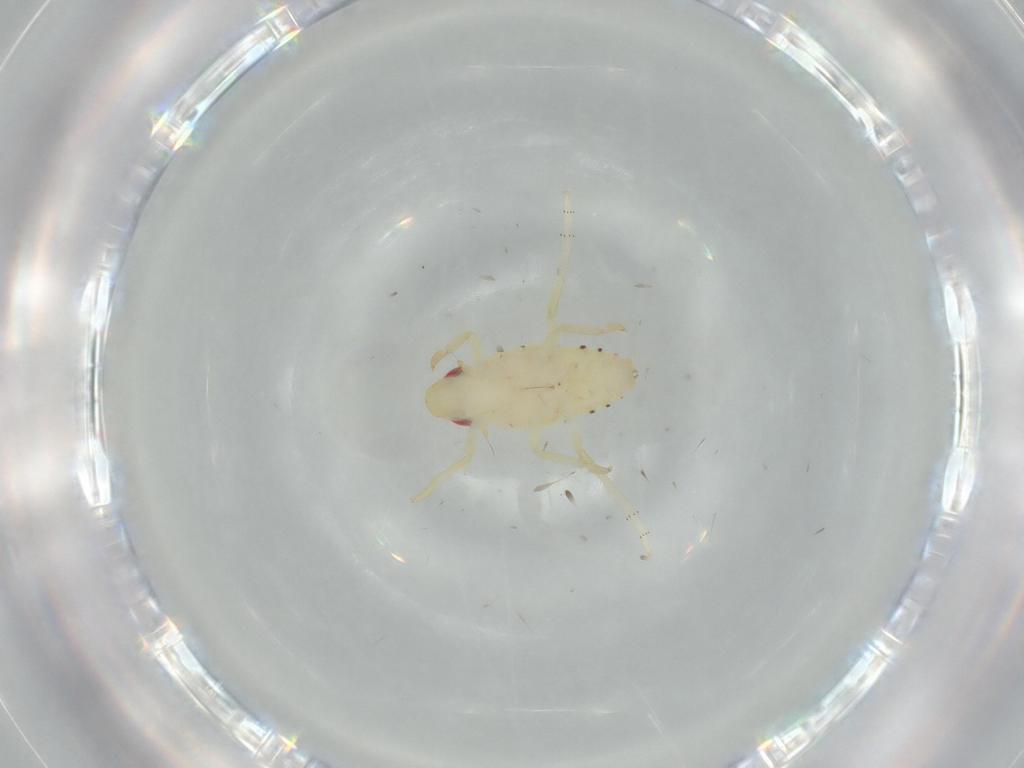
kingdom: Animalia
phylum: Arthropoda
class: Insecta
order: Hemiptera
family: Tropiduchidae
